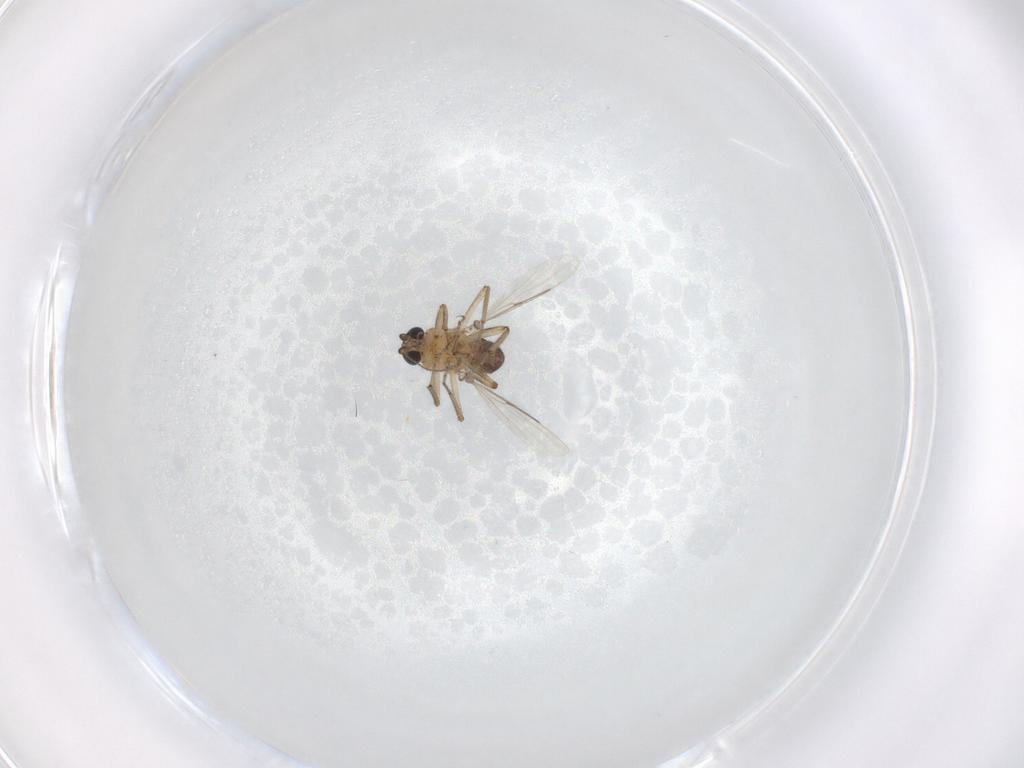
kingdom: Animalia
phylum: Arthropoda
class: Insecta
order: Diptera
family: Ceratopogonidae
